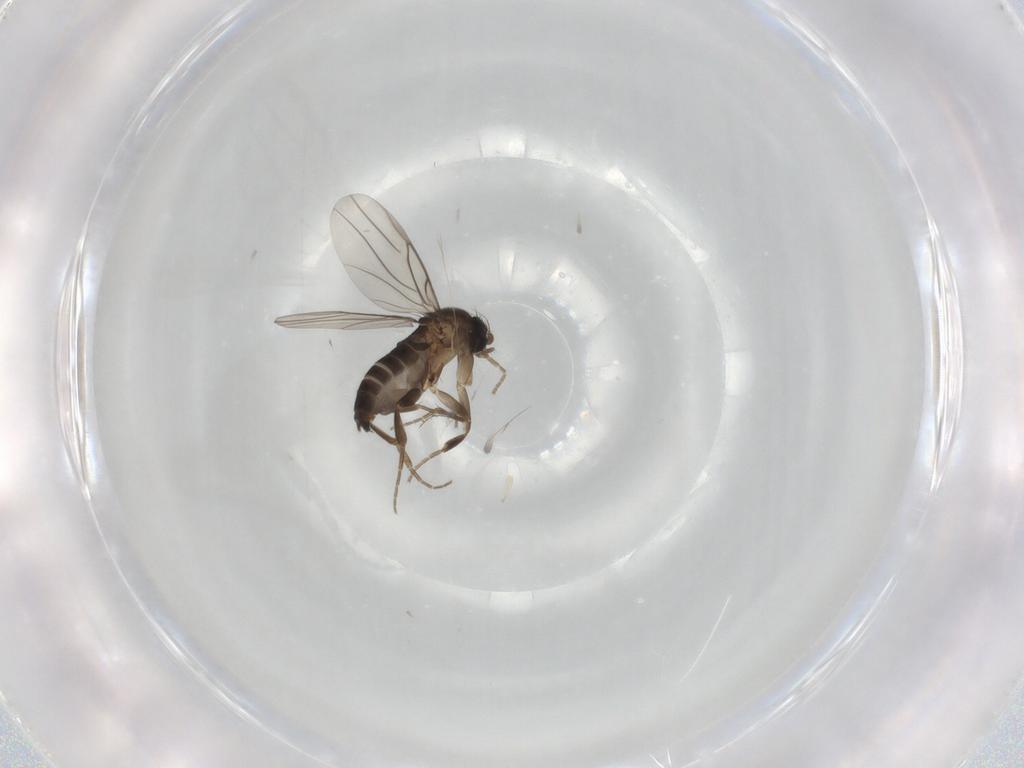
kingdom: Animalia
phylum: Arthropoda
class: Insecta
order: Diptera
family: Phoridae
